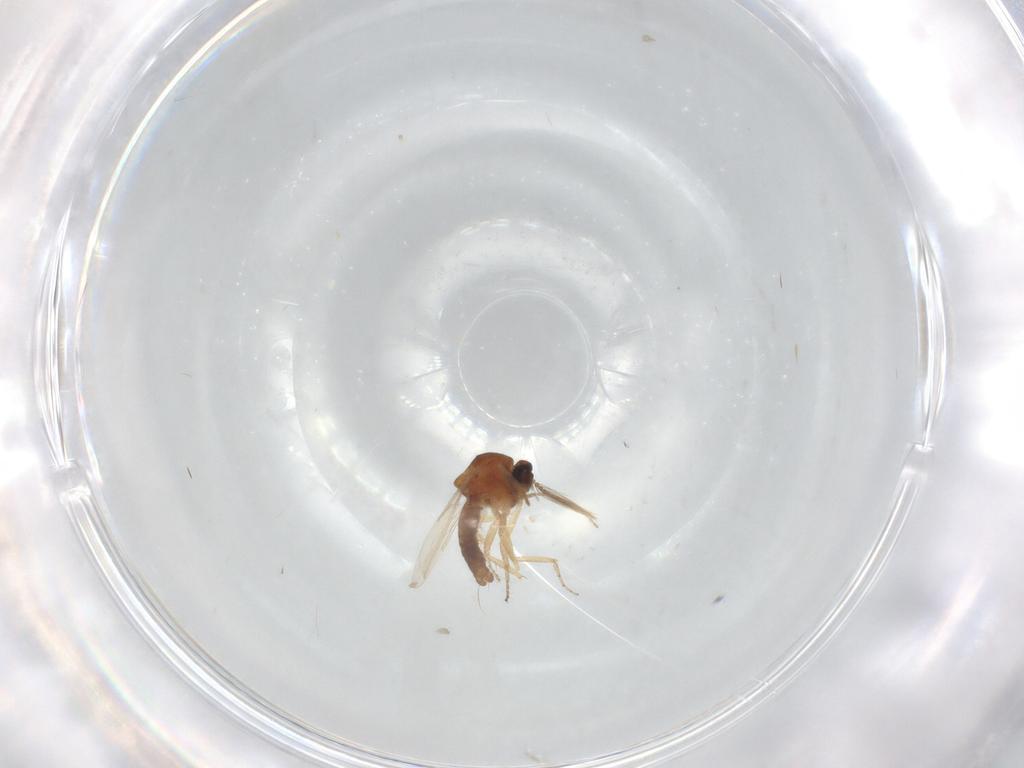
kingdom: Animalia
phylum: Arthropoda
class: Insecta
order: Diptera
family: Ceratopogonidae
